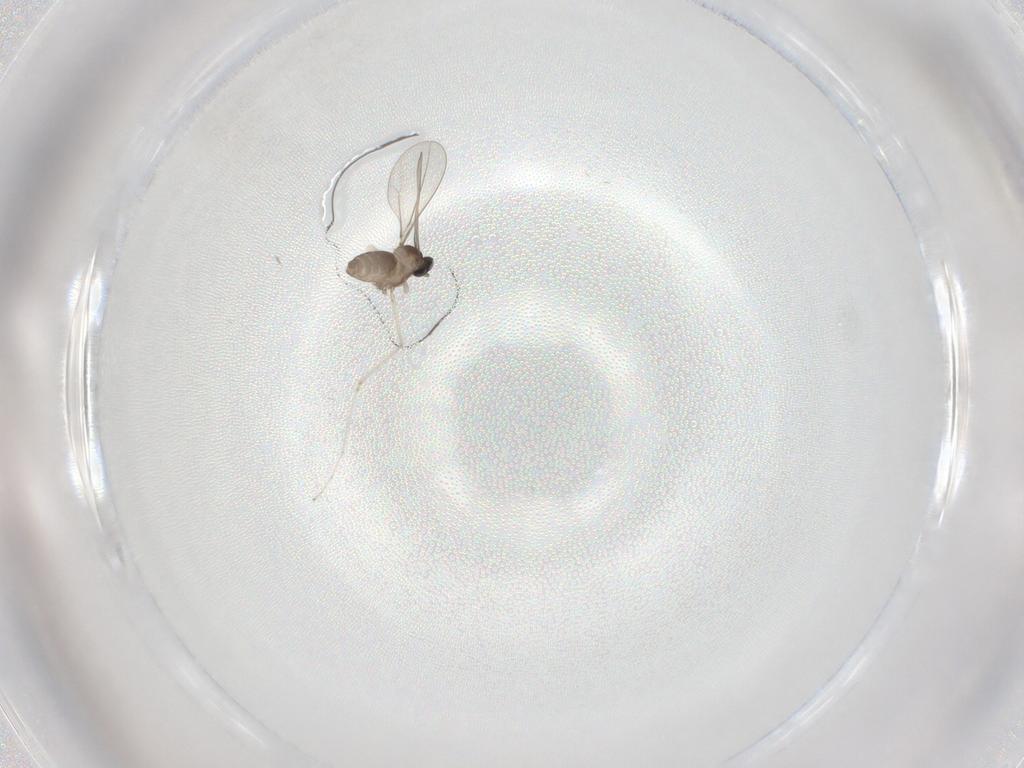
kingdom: Animalia
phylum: Arthropoda
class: Insecta
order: Diptera
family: Cecidomyiidae
